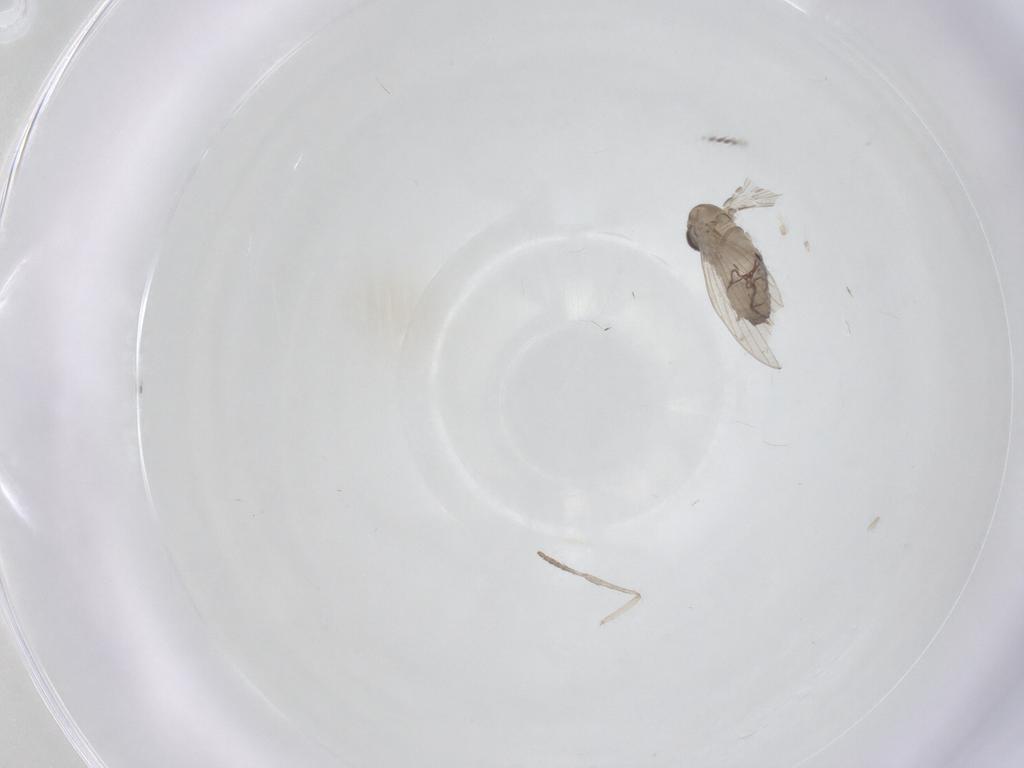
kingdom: Animalia
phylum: Arthropoda
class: Insecta
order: Diptera
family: Psychodidae
